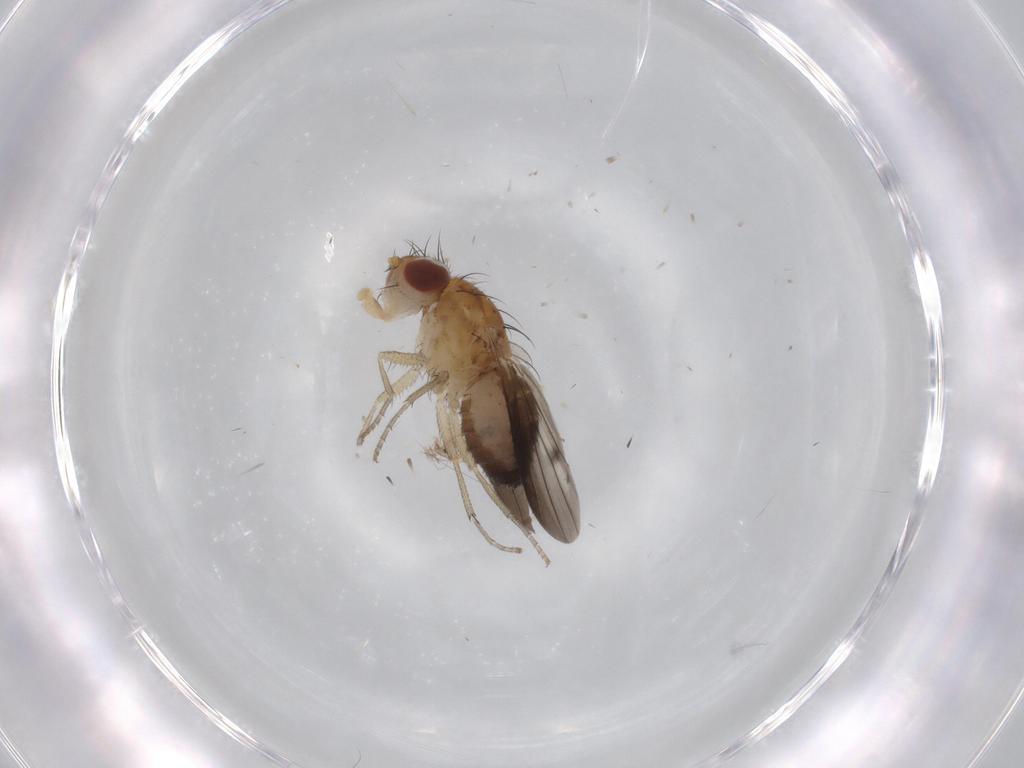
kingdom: Animalia
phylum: Arthropoda
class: Insecta
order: Diptera
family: Heleomyzidae
